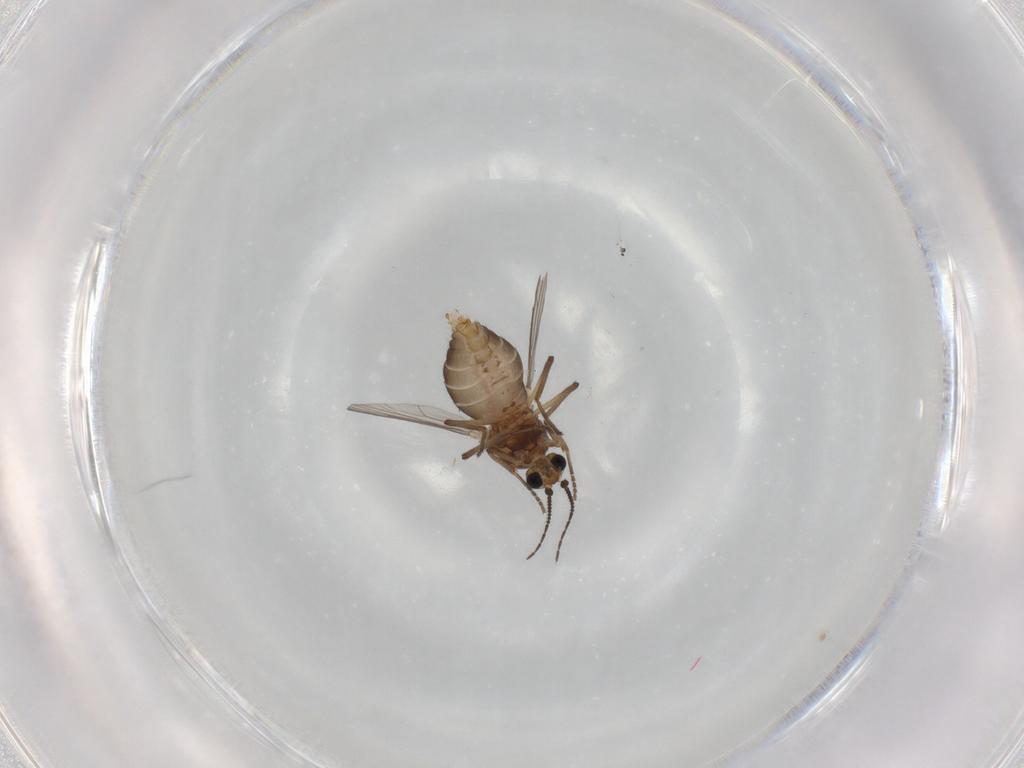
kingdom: Animalia
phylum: Arthropoda
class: Insecta
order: Diptera
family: Ceratopogonidae
